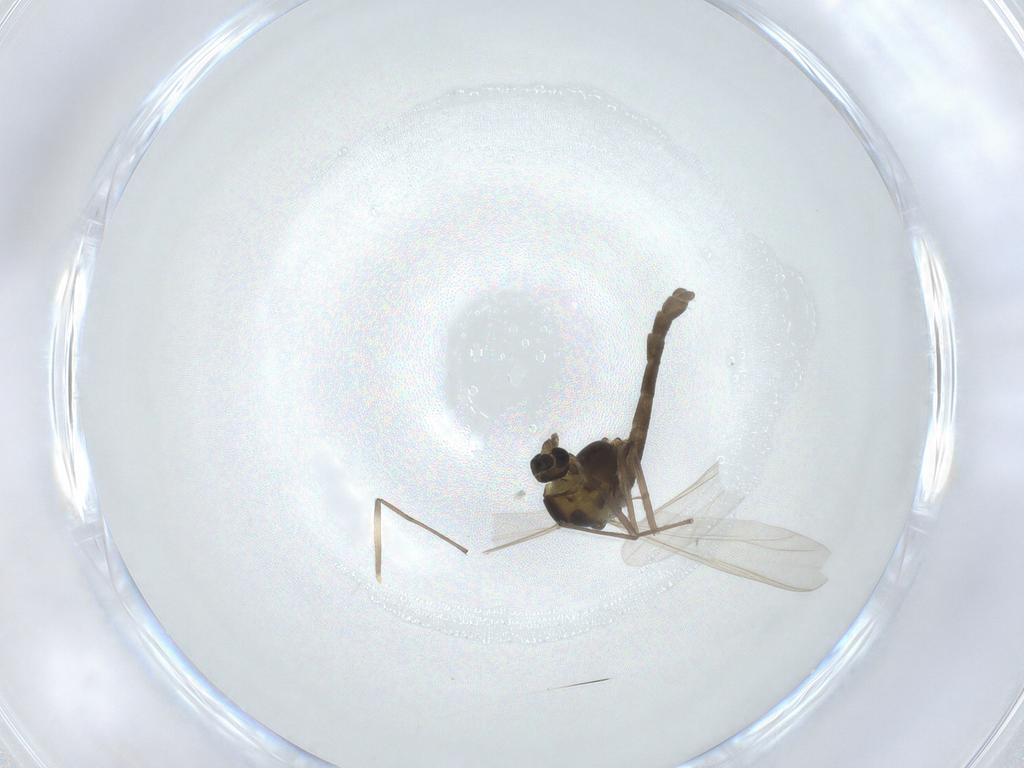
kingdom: Animalia
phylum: Arthropoda
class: Insecta
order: Diptera
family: Chironomidae
